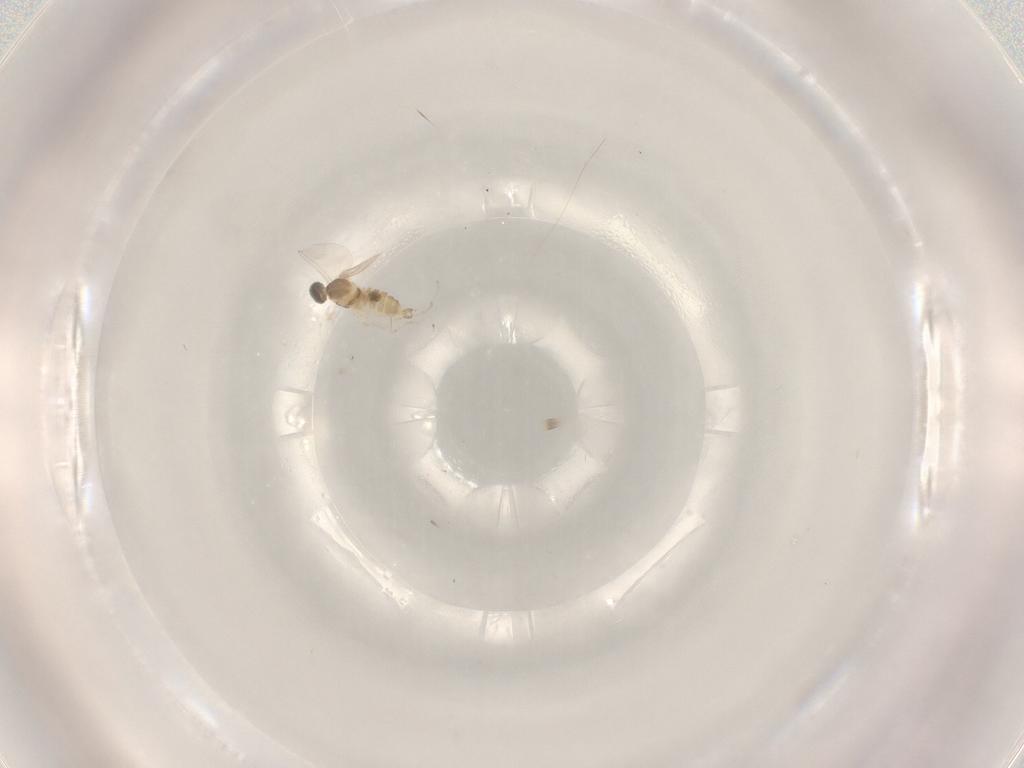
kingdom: Animalia
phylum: Arthropoda
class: Insecta
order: Diptera
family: Cecidomyiidae
